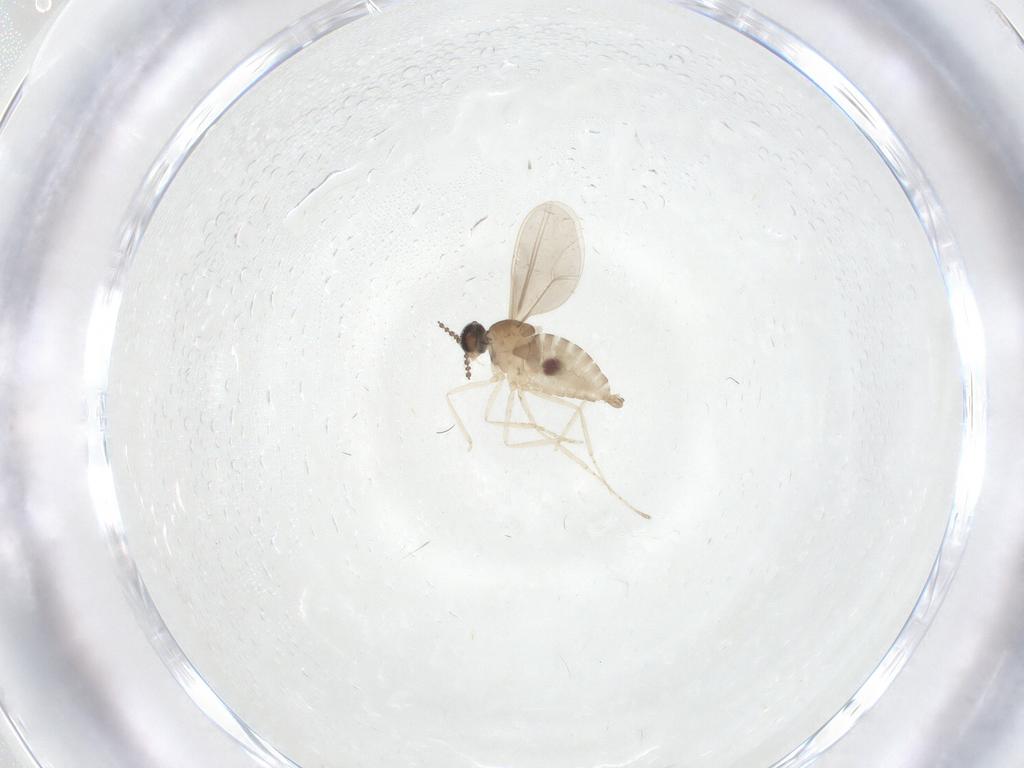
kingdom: Animalia
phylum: Arthropoda
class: Insecta
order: Diptera
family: Cecidomyiidae
